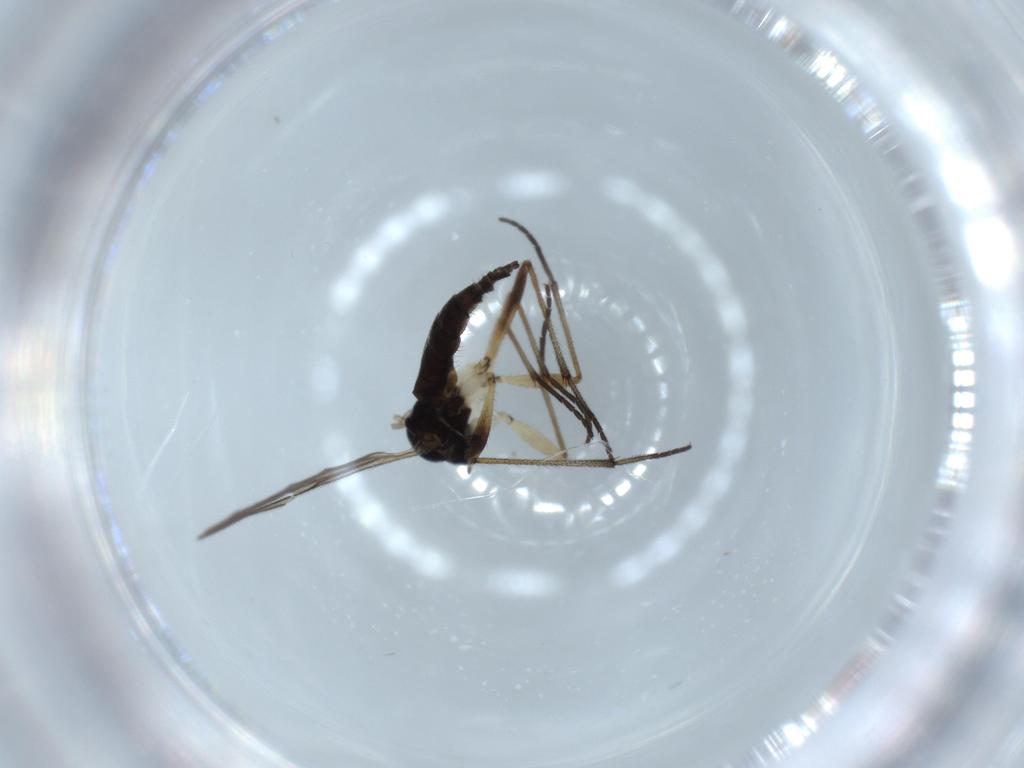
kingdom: Animalia
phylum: Arthropoda
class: Insecta
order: Diptera
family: Sciaridae
